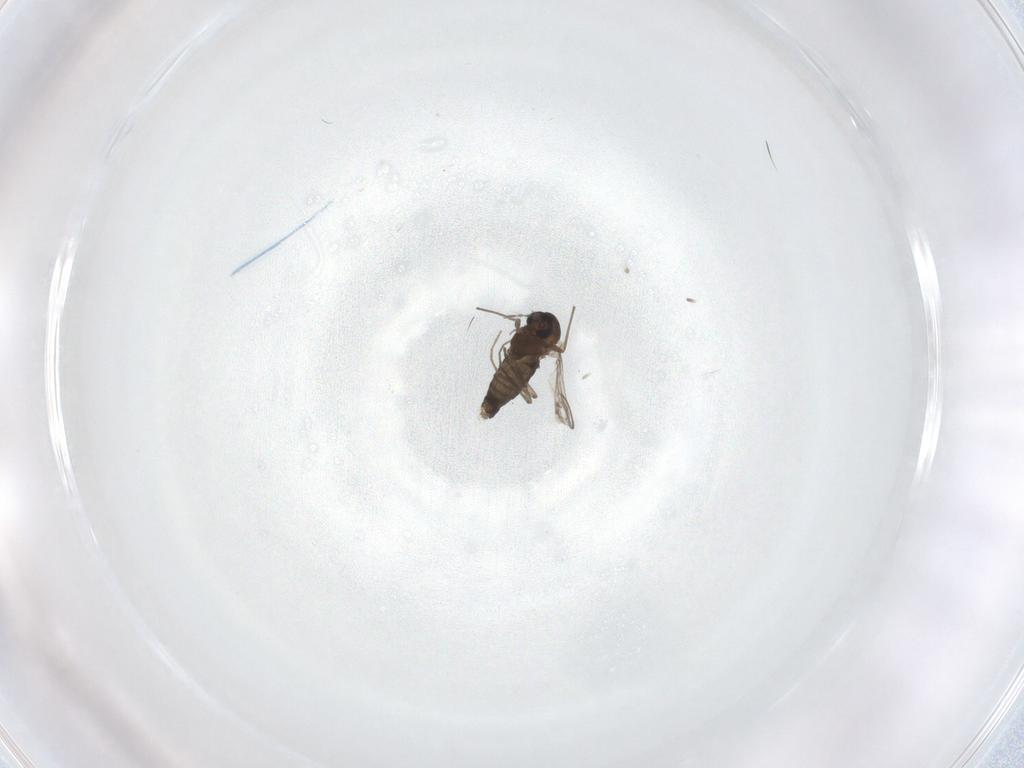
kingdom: Animalia
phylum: Arthropoda
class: Insecta
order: Diptera
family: Chironomidae
